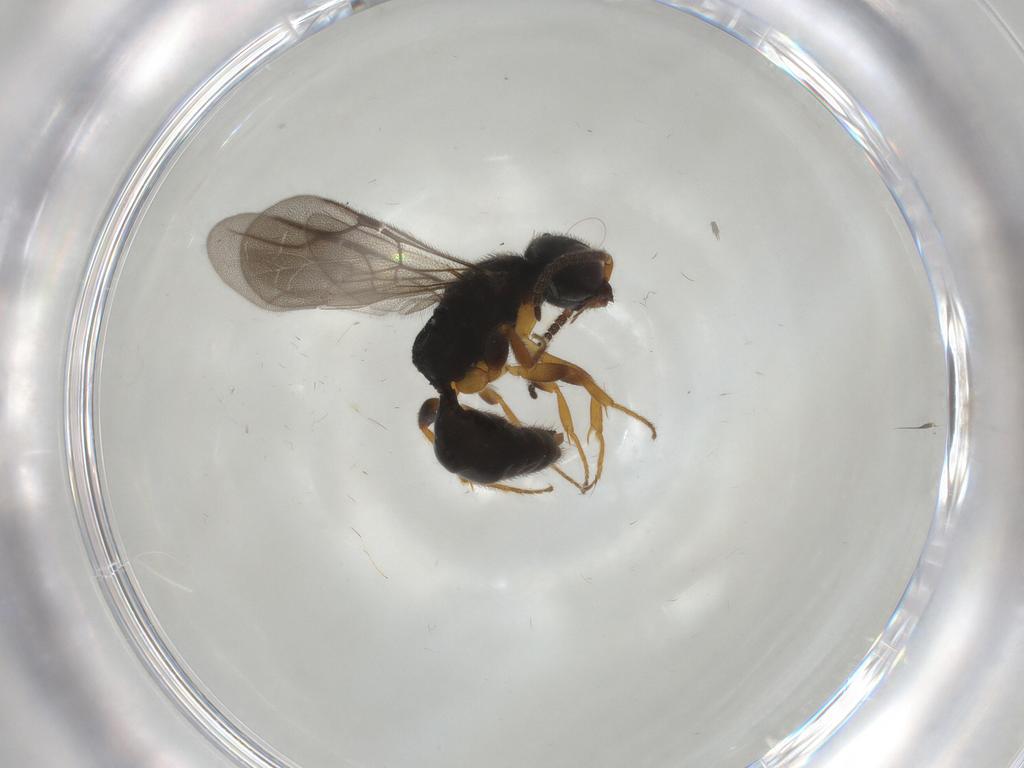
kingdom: Animalia
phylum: Arthropoda
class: Insecta
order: Hymenoptera
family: Bethylidae
